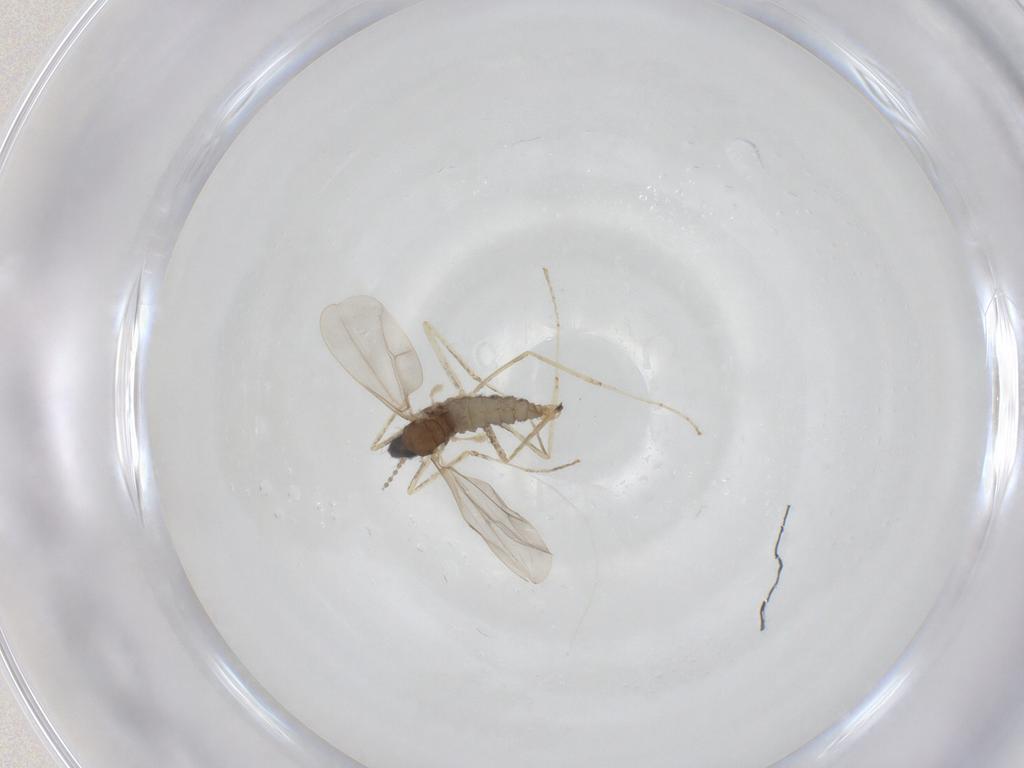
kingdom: Animalia
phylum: Arthropoda
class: Insecta
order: Diptera
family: Cecidomyiidae
